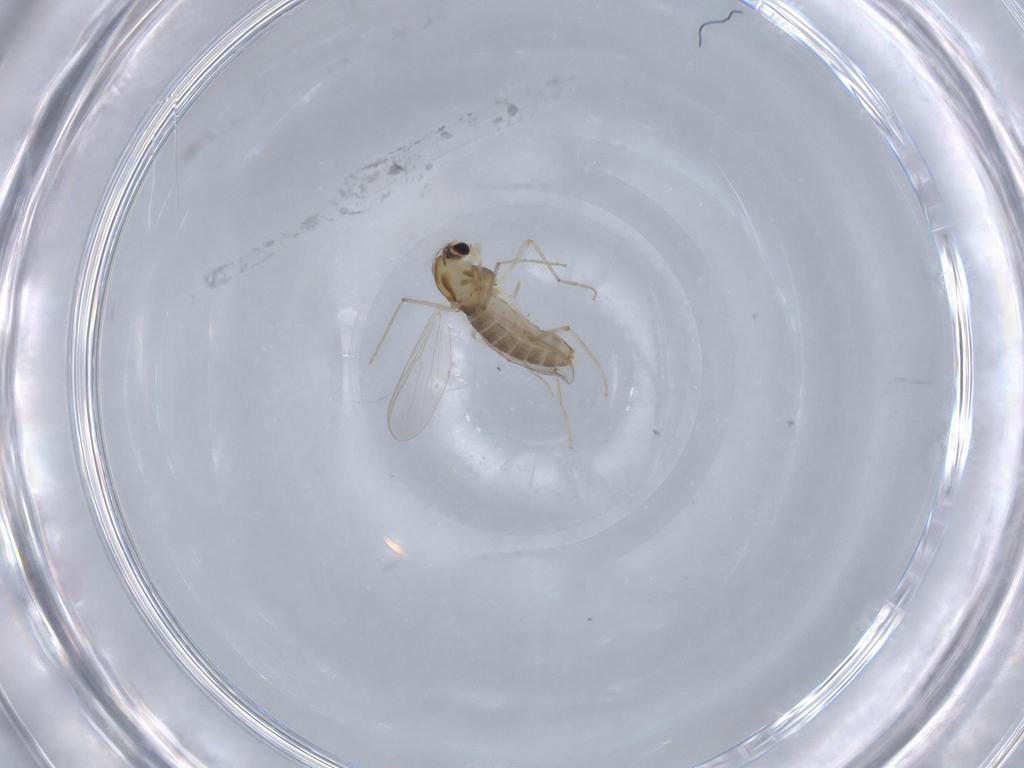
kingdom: Animalia
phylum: Arthropoda
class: Insecta
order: Diptera
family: Chironomidae
